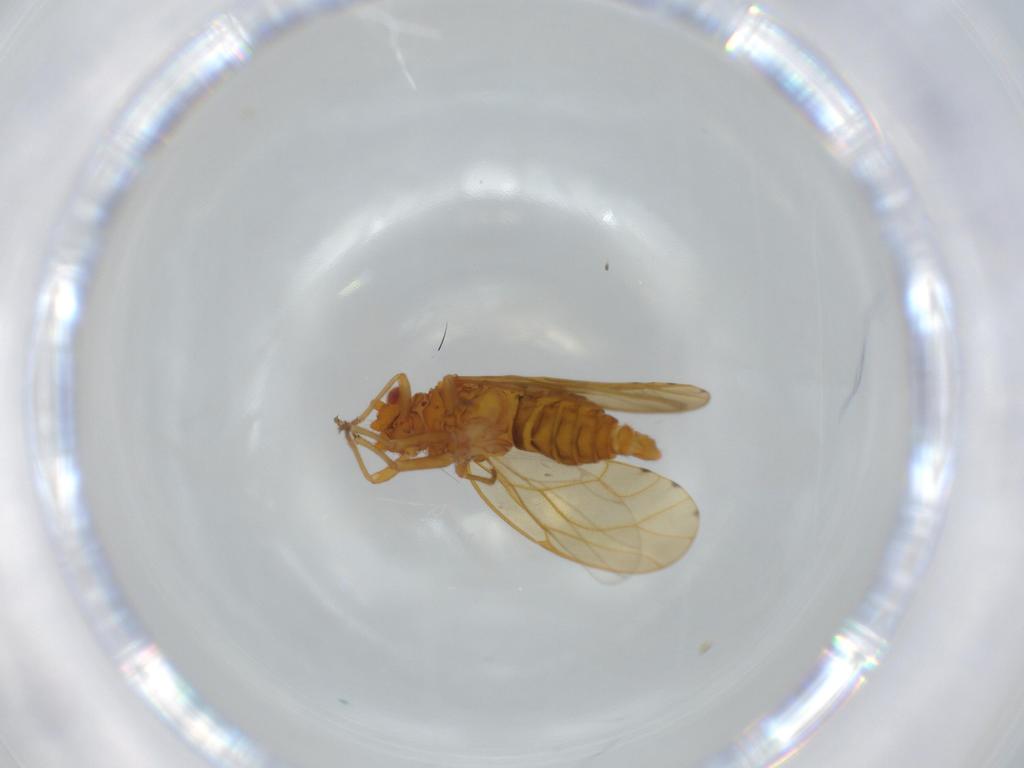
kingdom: Animalia
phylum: Arthropoda
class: Insecta
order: Hemiptera
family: Psylloidea_incertae_sedis
